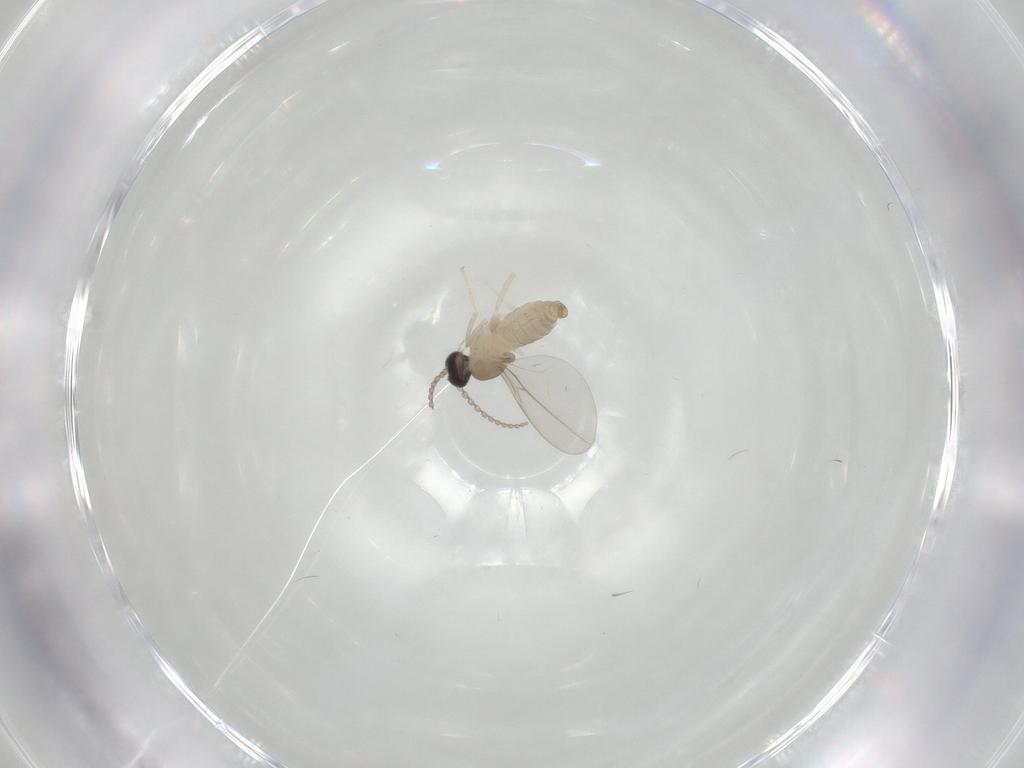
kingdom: Animalia
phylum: Arthropoda
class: Insecta
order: Diptera
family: Cecidomyiidae
